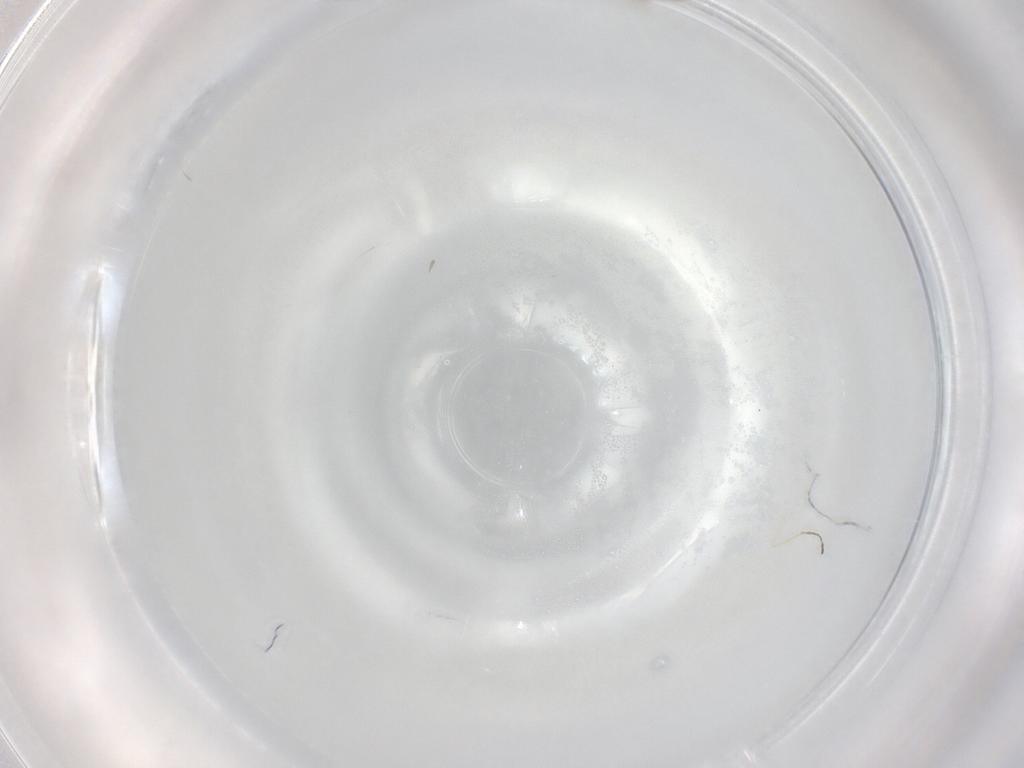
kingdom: Animalia
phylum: Arthropoda
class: Insecta
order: Diptera
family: Cecidomyiidae
